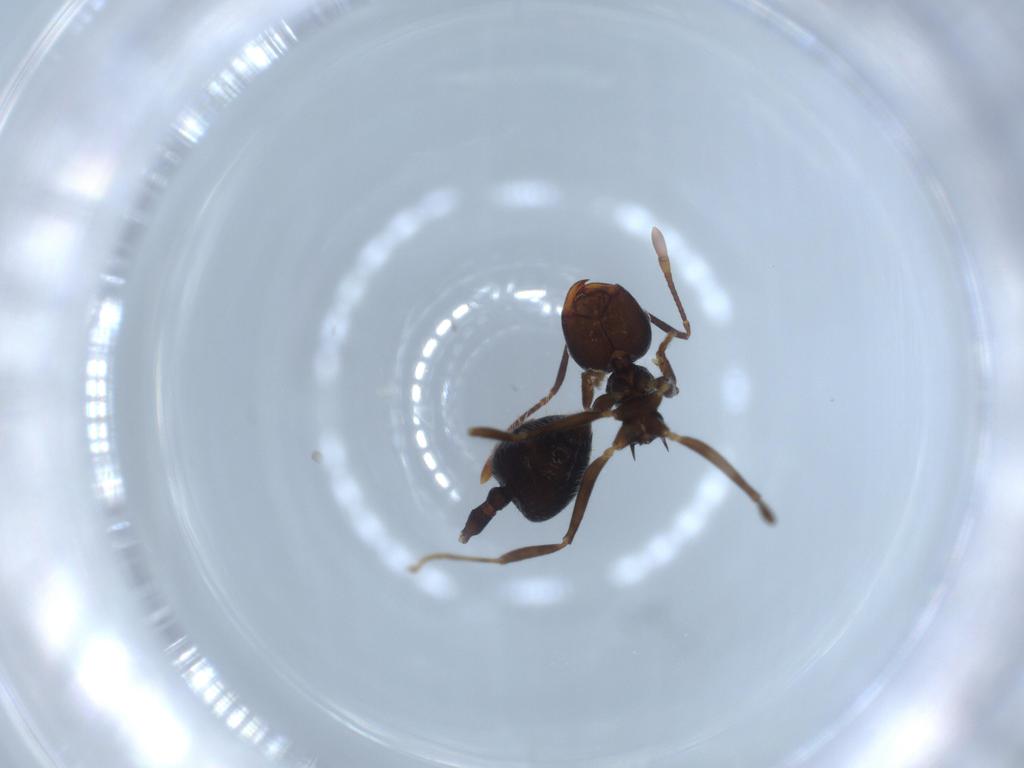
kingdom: Animalia
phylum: Arthropoda
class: Insecta
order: Hymenoptera
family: Formicidae
